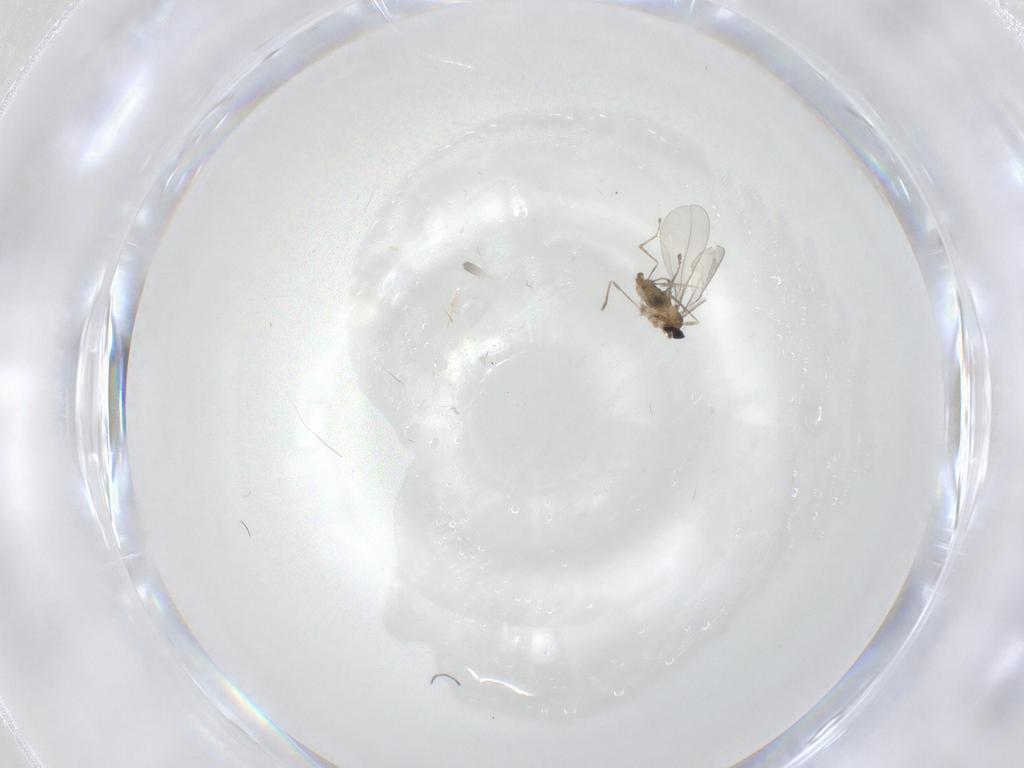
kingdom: Animalia
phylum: Arthropoda
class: Insecta
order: Diptera
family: Cecidomyiidae
